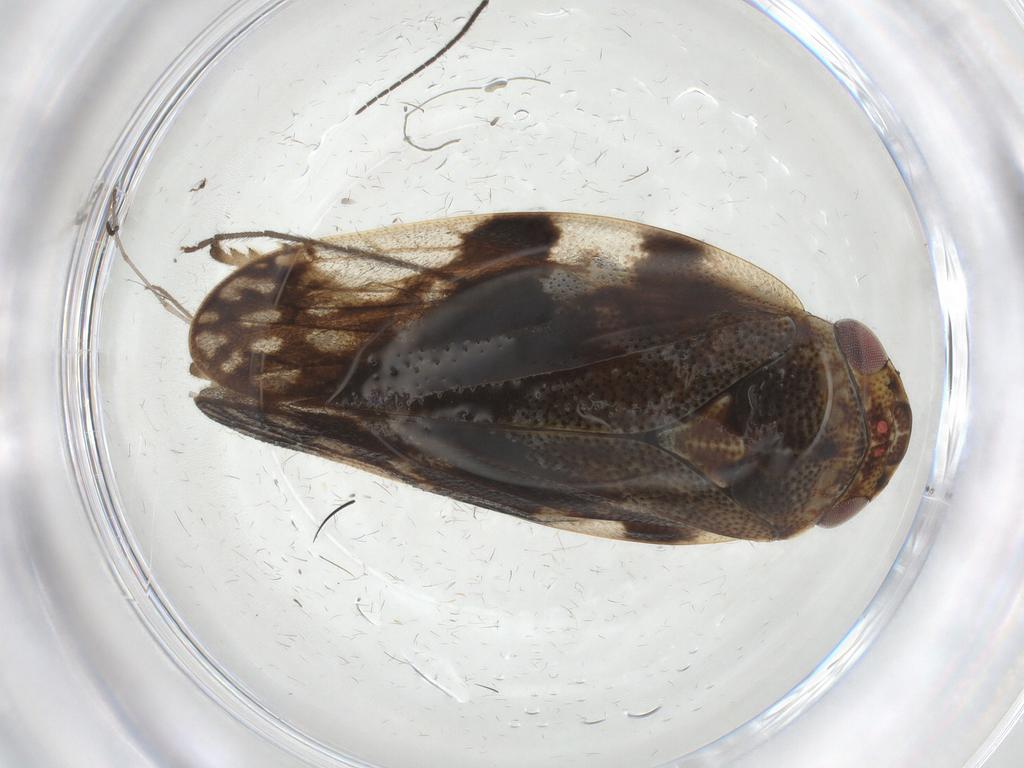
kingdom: Animalia
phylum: Arthropoda
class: Insecta
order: Hemiptera
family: Aphrophoridae
